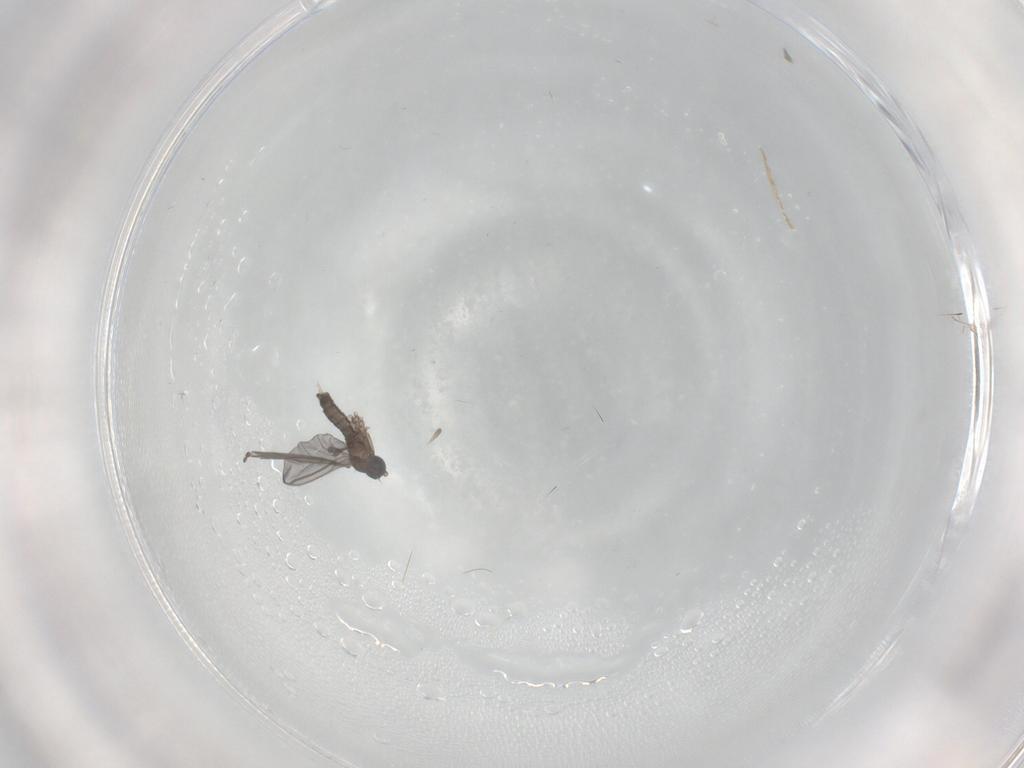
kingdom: Animalia
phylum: Arthropoda
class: Insecta
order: Diptera
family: Sciaridae
